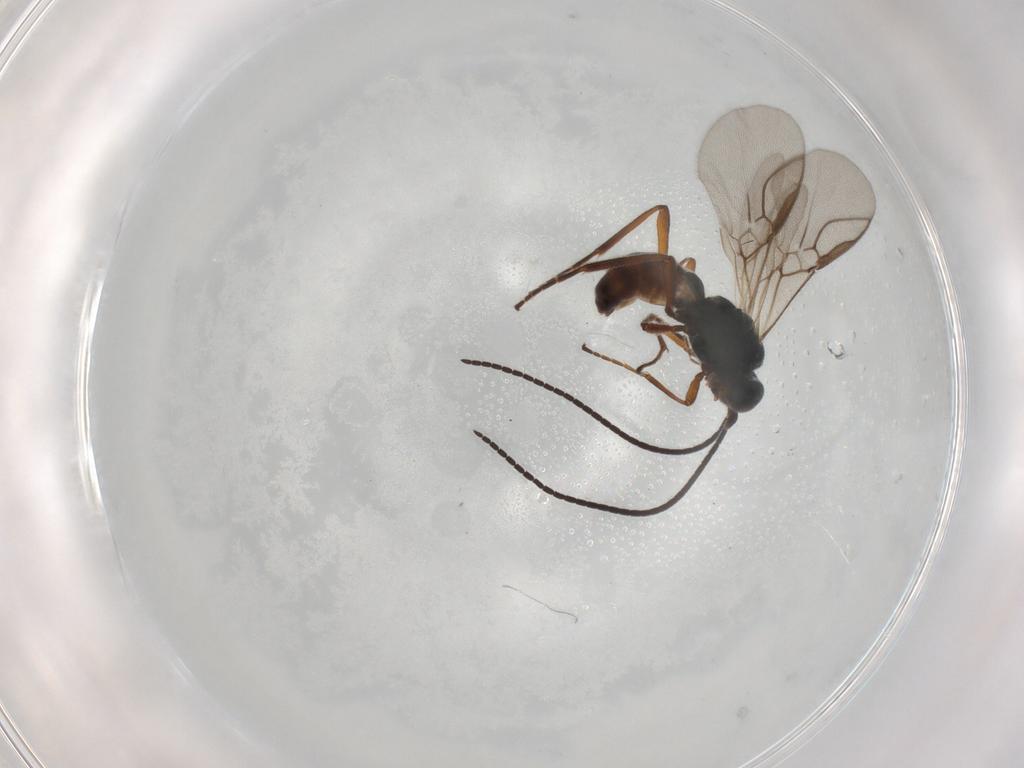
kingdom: Animalia
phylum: Arthropoda
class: Insecta
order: Hymenoptera
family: Braconidae
